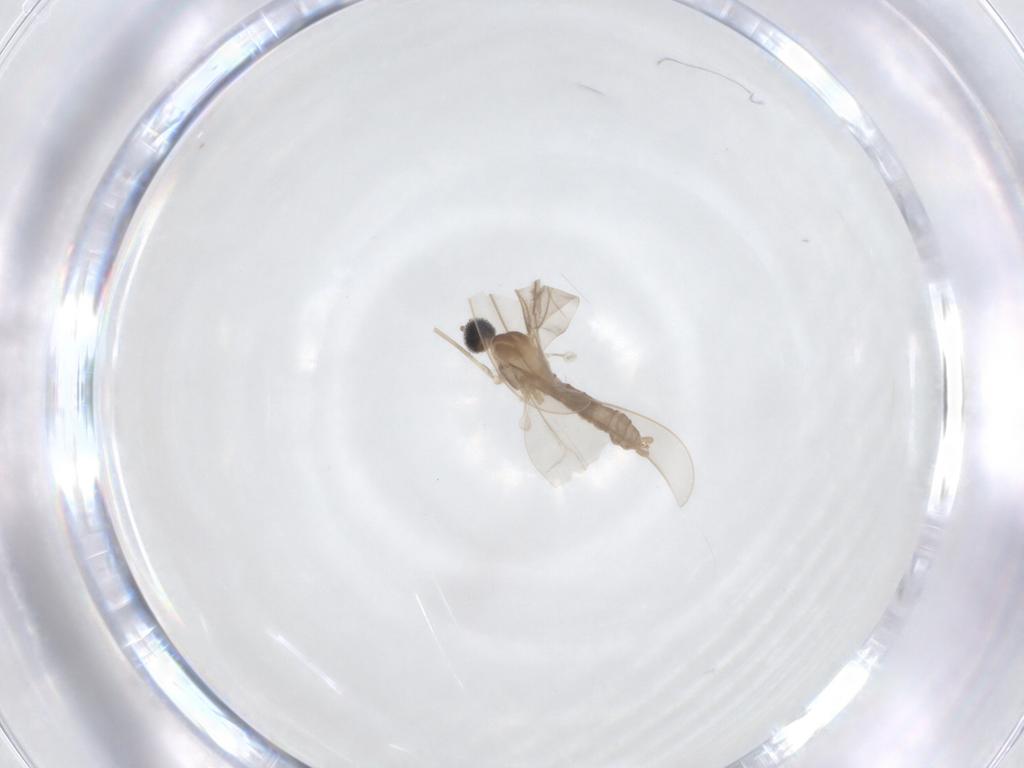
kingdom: Animalia
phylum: Arthropoda
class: Insecta
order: Diptera
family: Cecidomyiidae
